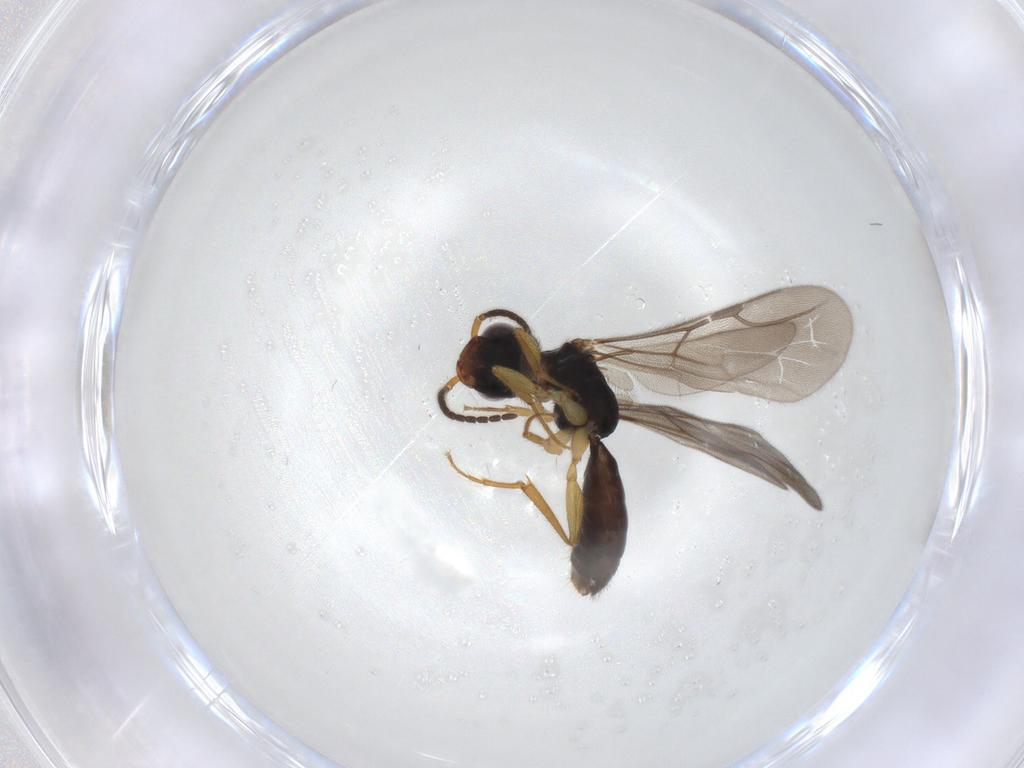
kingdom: Animalia
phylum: Arthropoda
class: Insecta
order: Hymenoptera
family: Bethylidae
